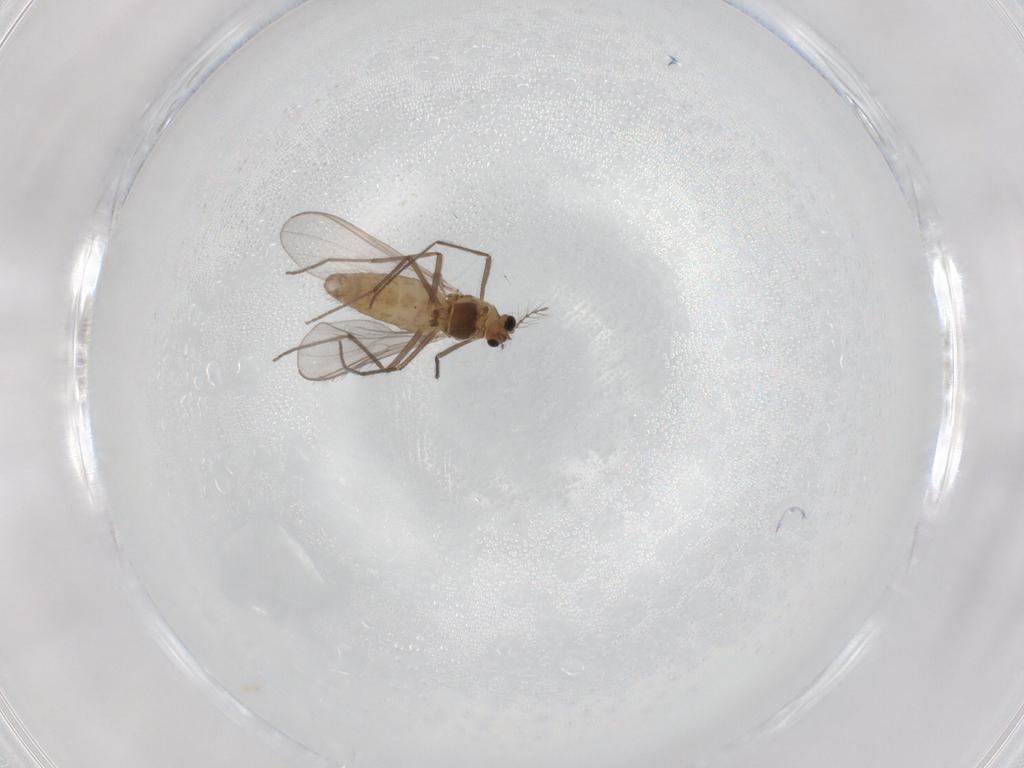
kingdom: Animalia
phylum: Arthropoda
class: Insecta
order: Diptera
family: Chironomidae
